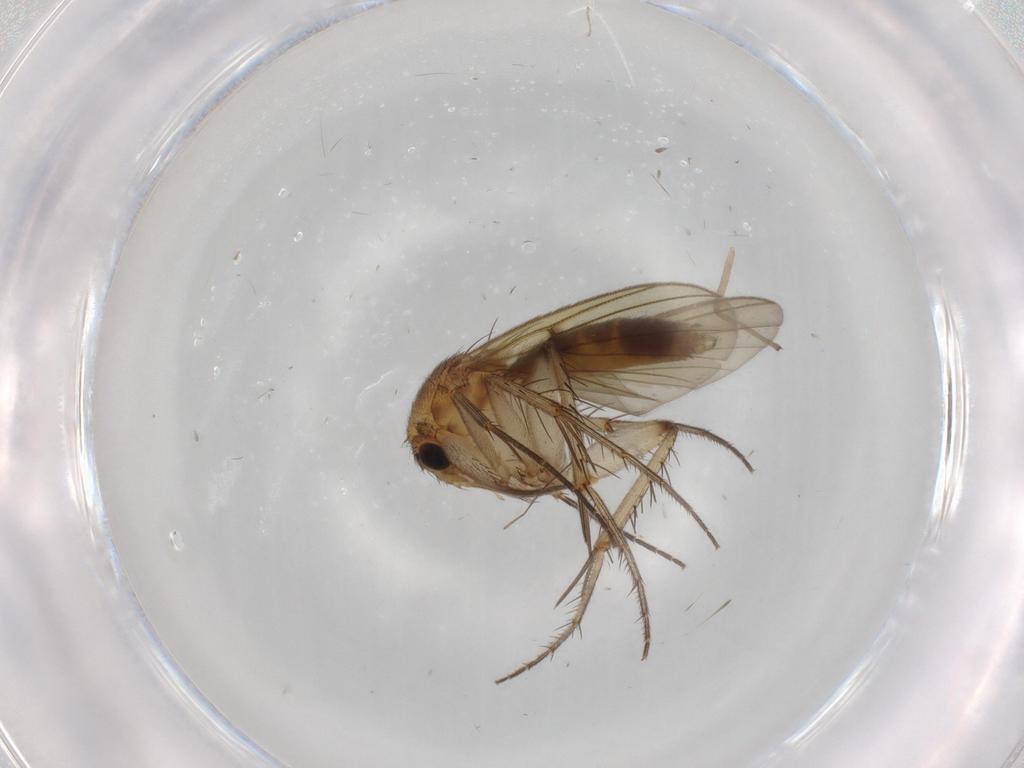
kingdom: Animalia
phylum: Arthropoda
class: Insecta
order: Diptera
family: Mycetophilidae
